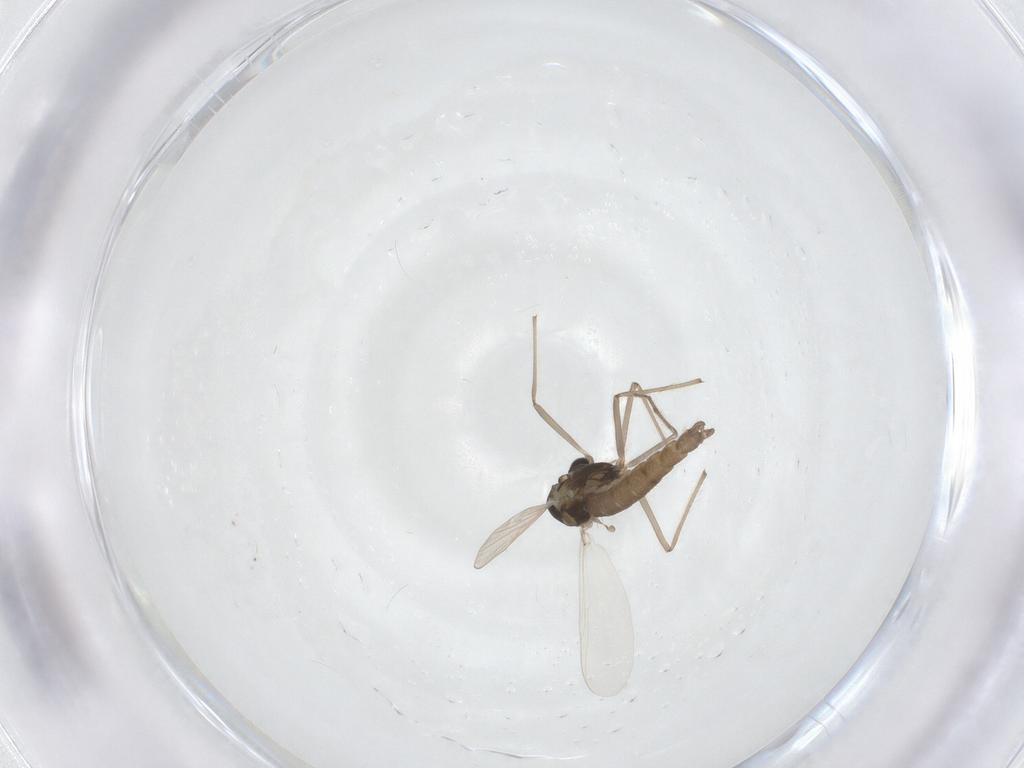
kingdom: Animalia
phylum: Arthropoda
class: Insecta
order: Diptera
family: Chironomidae
